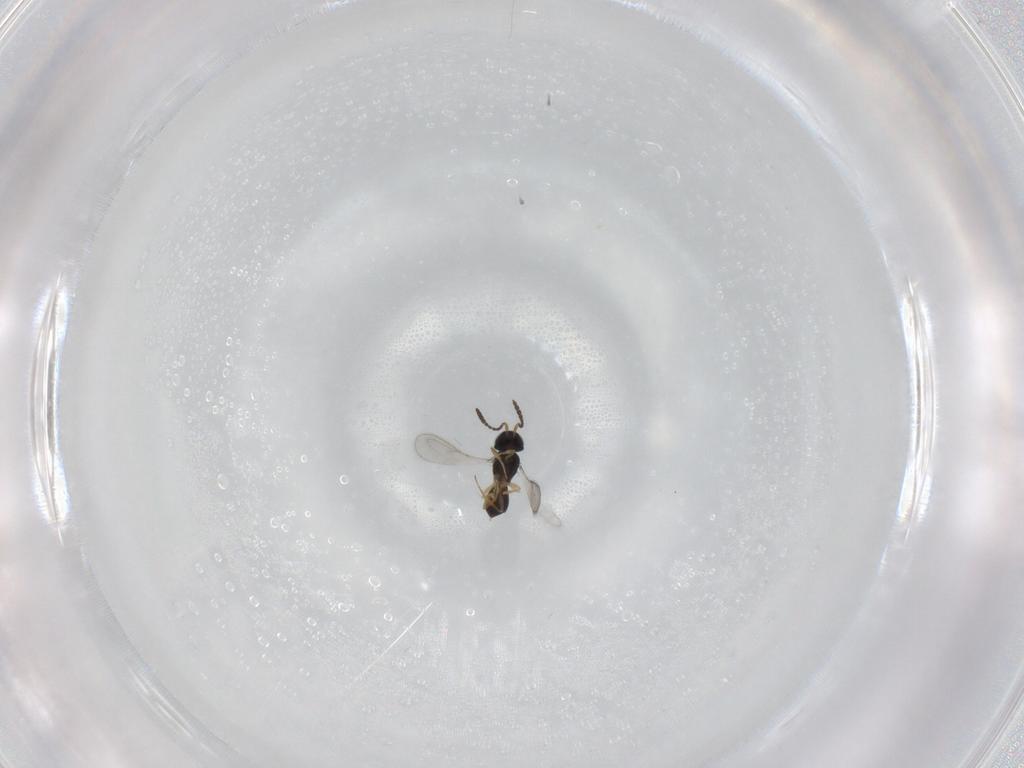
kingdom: Animalia
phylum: Arthropoda
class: Insecta
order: Hymenoptera
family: Scelionidae
